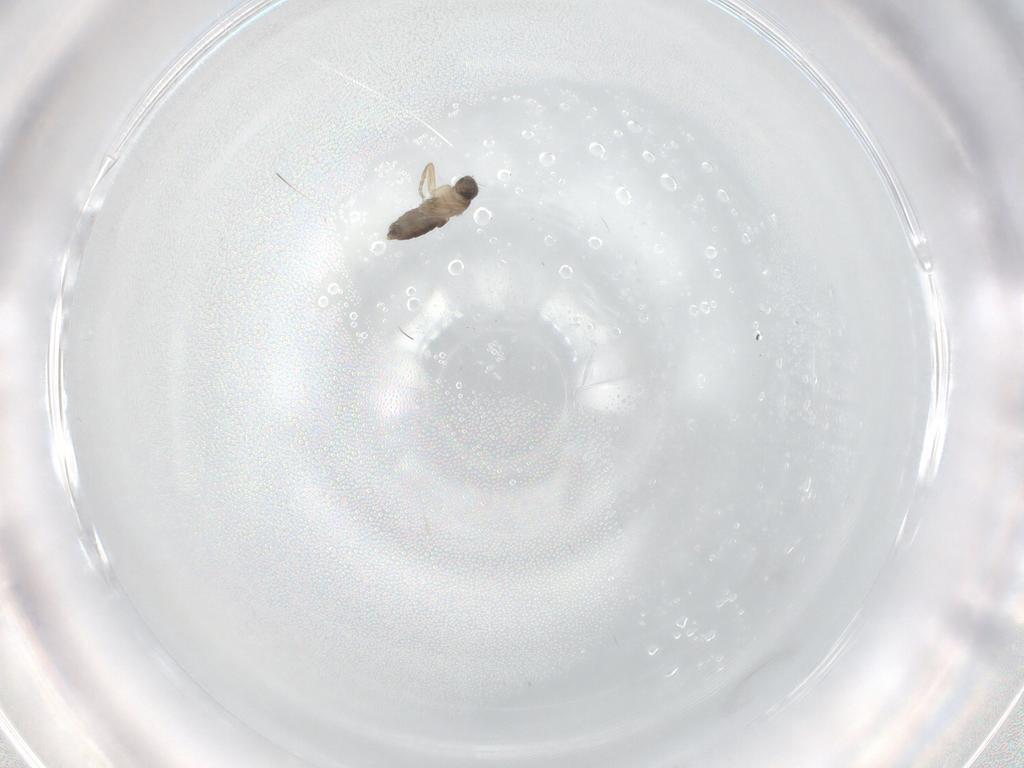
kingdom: Animalia
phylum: Arthropoda
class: Insecta
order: Diptera
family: Phoridae
